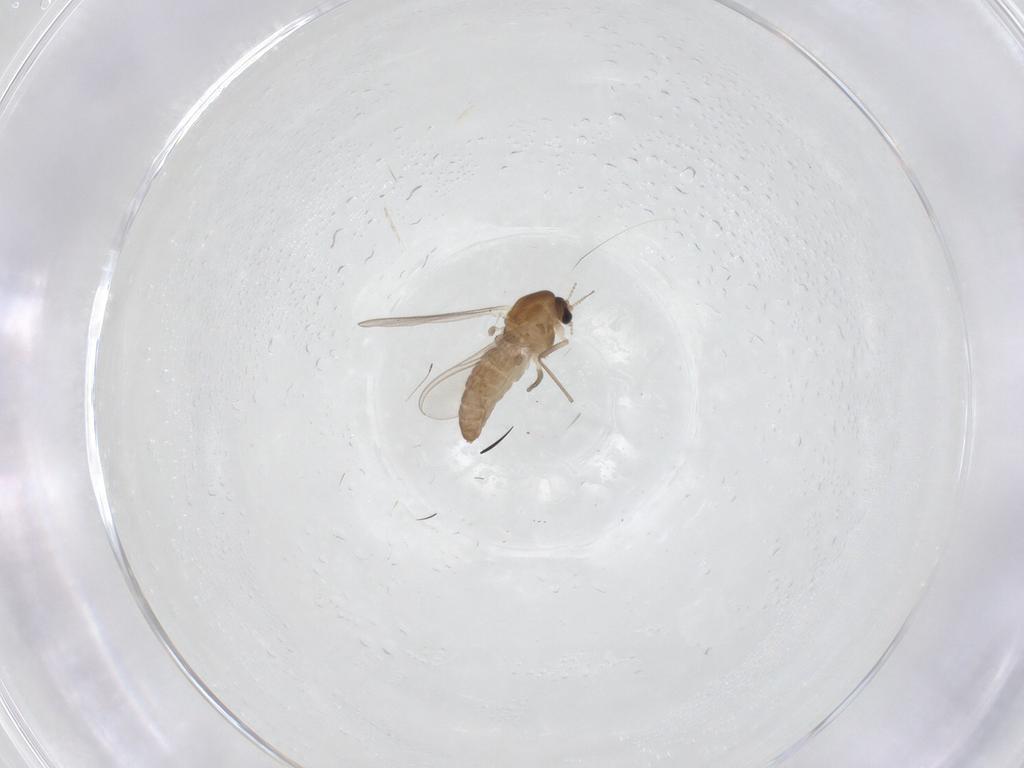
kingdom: Animalia
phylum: Arthropoda
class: Insecta
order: Diptera
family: Chironomidae
